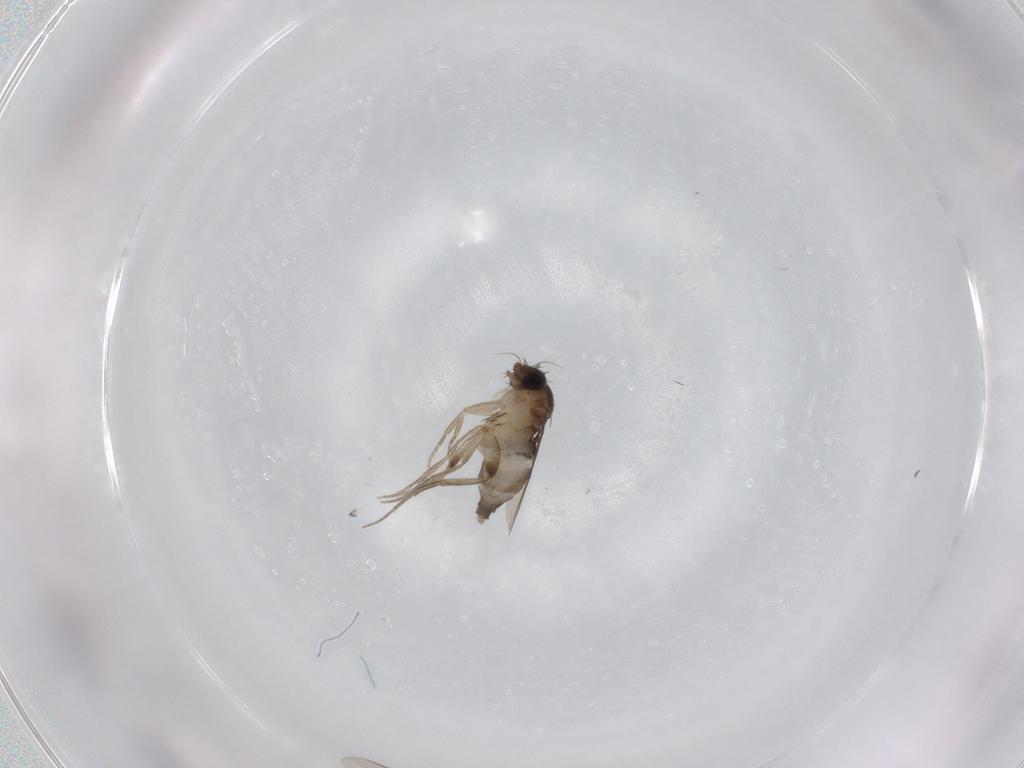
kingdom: Animalia
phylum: Arthropoda
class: Insecta
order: Diptera
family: Phoridae
